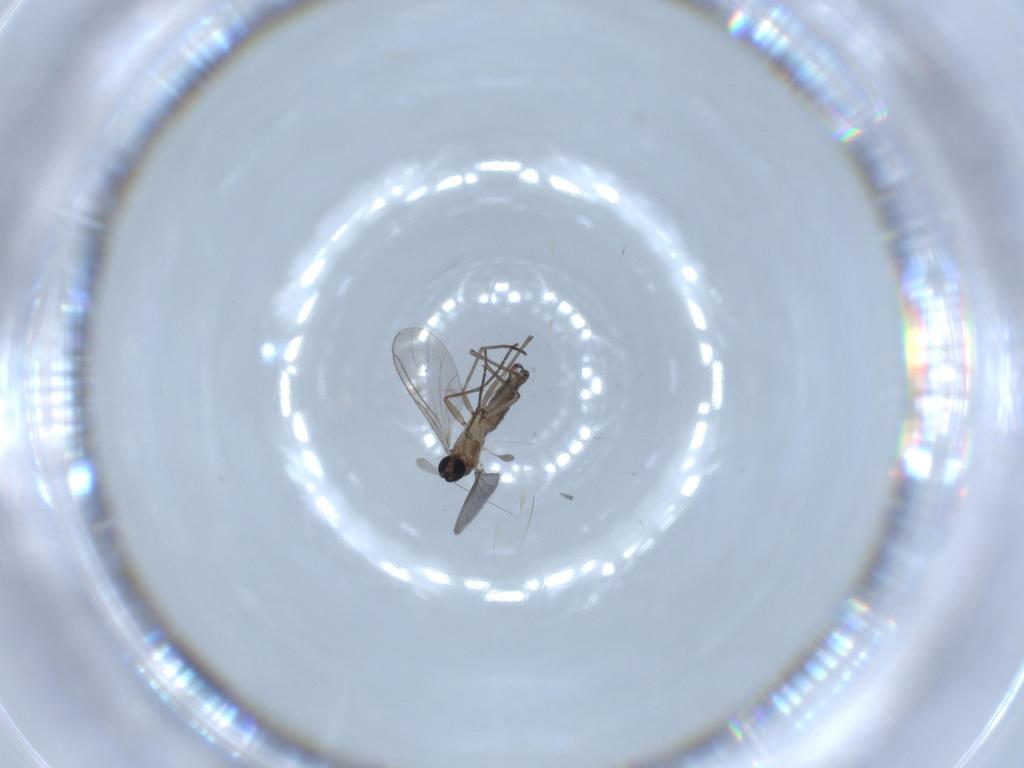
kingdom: Animalia
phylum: Arthropoda
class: Insecta
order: Diptera
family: Sciaridae
